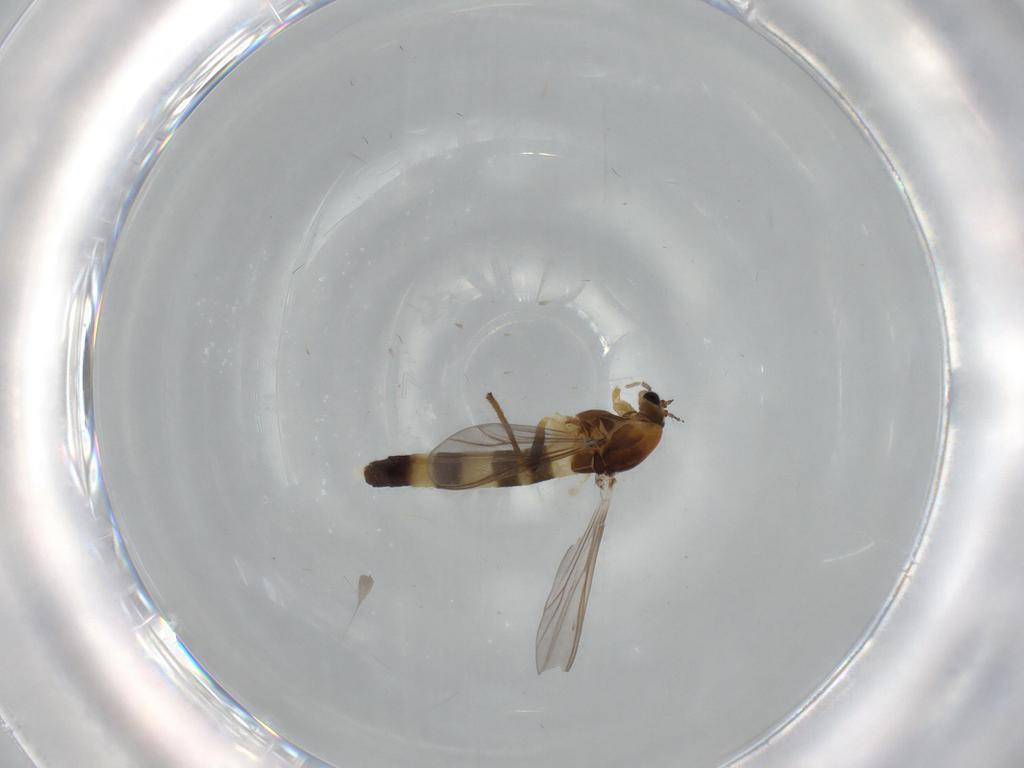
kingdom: Animalia
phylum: Arthropoda
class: Insecta
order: Diptera
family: Chironomidae
